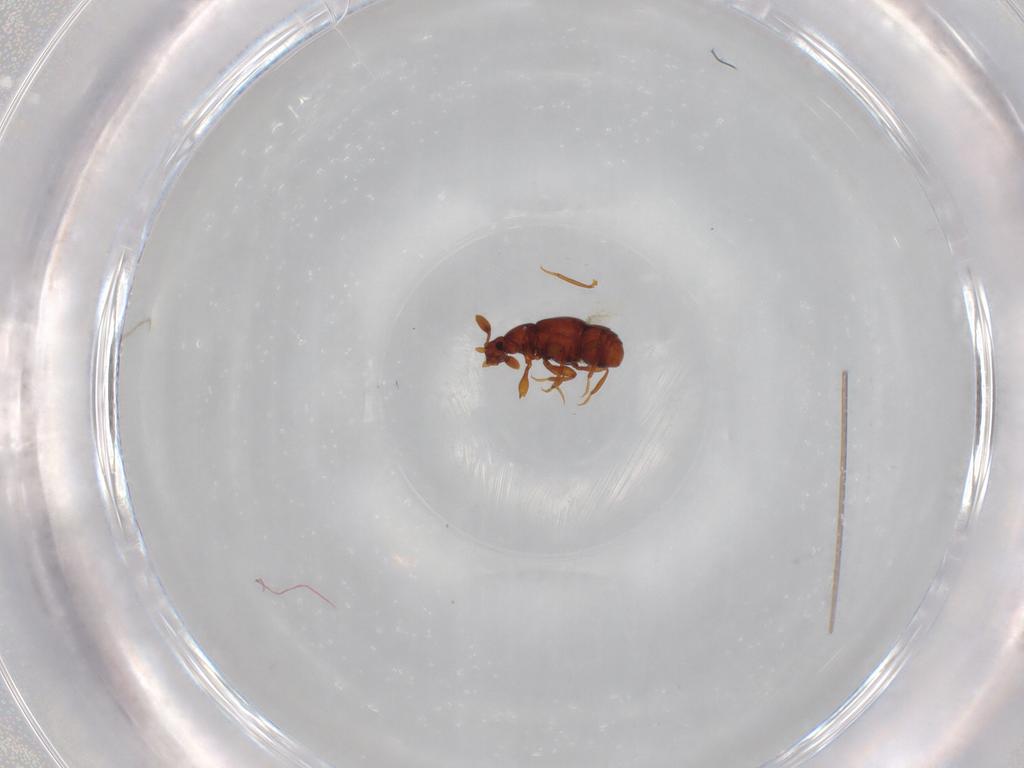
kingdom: Animalia
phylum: Arthropoda
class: Insecta
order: Coleoptera
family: Staphylinidae
